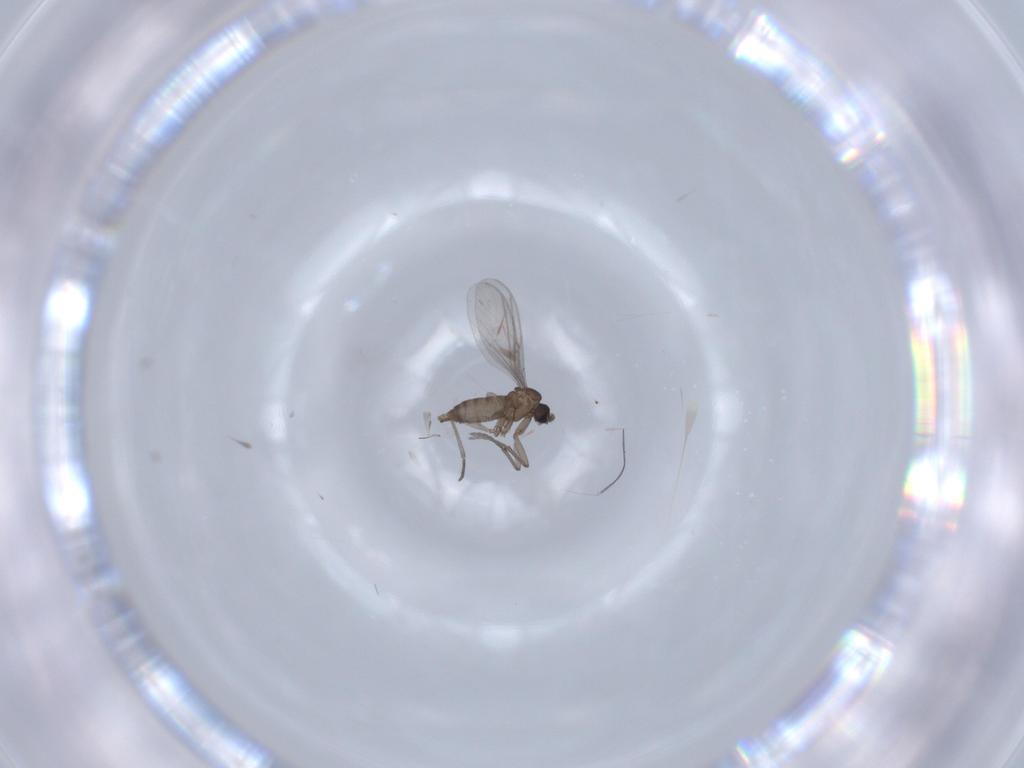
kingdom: Animalia
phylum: Arthropoda
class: Insecta
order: Diptera
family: Sciaridae
